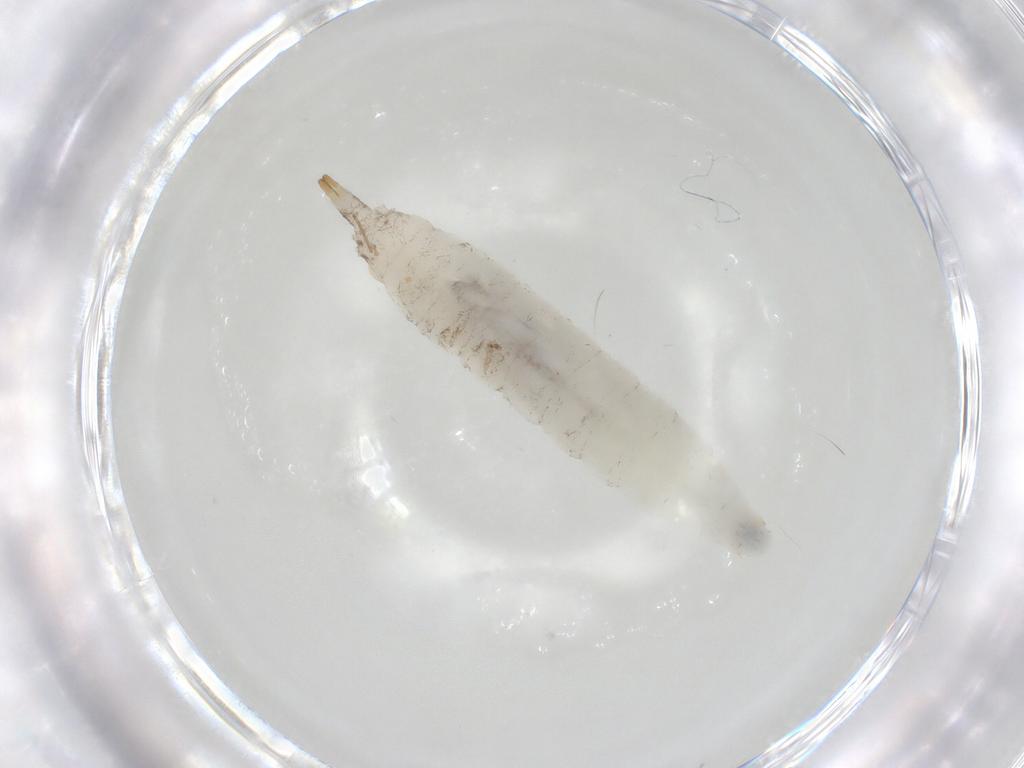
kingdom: Animalia
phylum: Arthropoda
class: Insecta
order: Diptera
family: Drosophilidae
